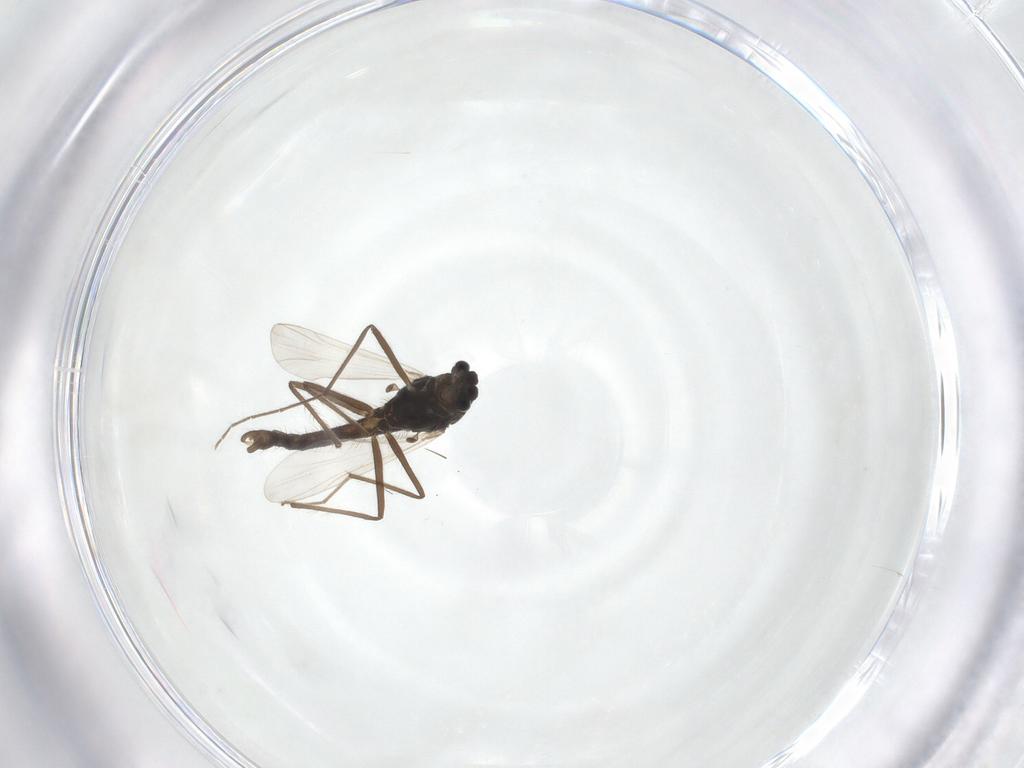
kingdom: Animalia
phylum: Arthropoda
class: Insecta
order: Diptera
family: Chironomidae
